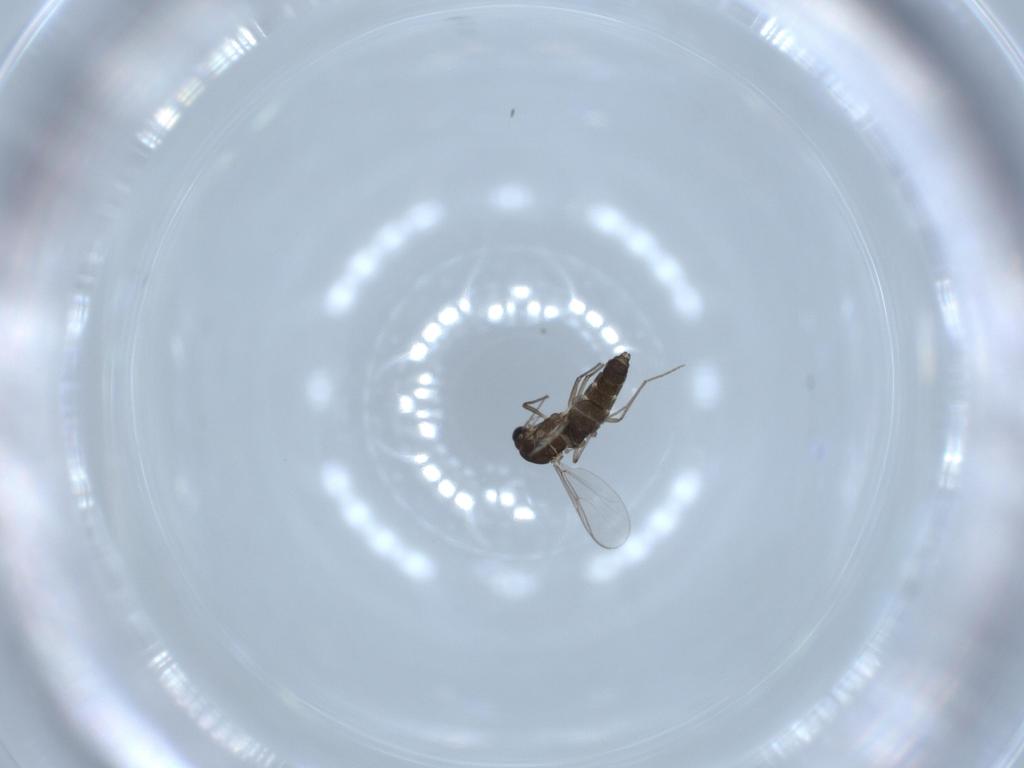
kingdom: Animalia
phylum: Arthropoda
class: Insecta
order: Diptera
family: Chironomidae
